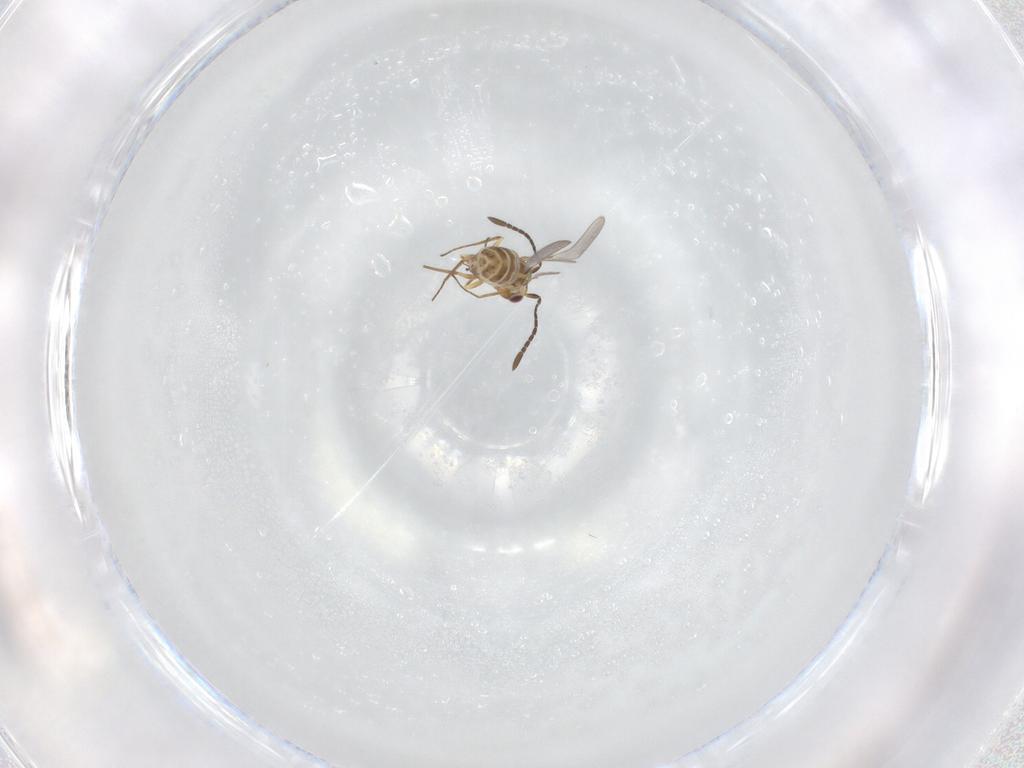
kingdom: Animalia
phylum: Arthropoda
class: Insecta
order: Hymenoptera
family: Mymaridae
